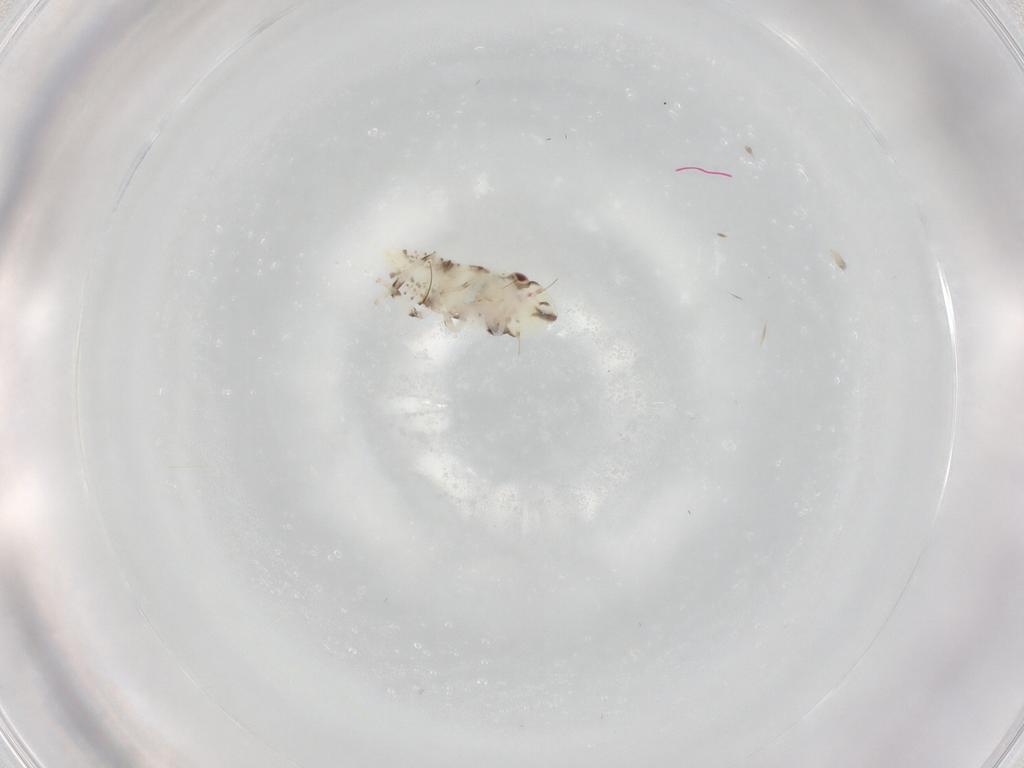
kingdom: Animalia
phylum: Arthropoda
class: Insecta
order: Hemiptera
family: Cicadellidae
